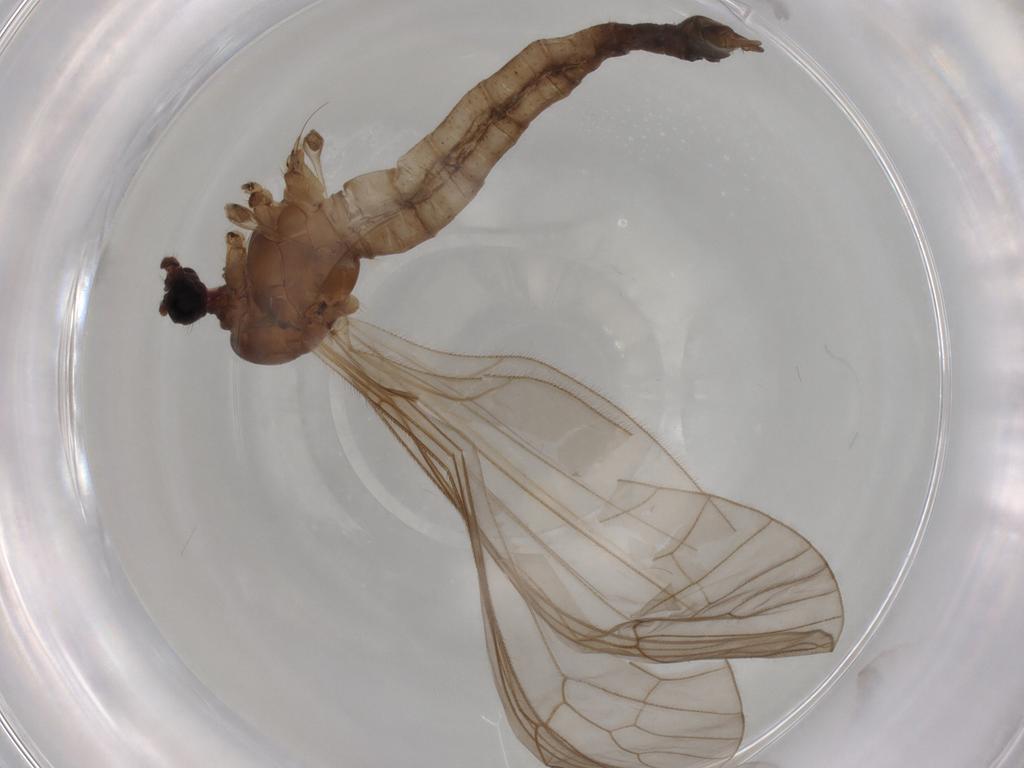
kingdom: Animalia
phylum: Arthropoda
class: Insecta
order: Diptera
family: Trichoceridae
